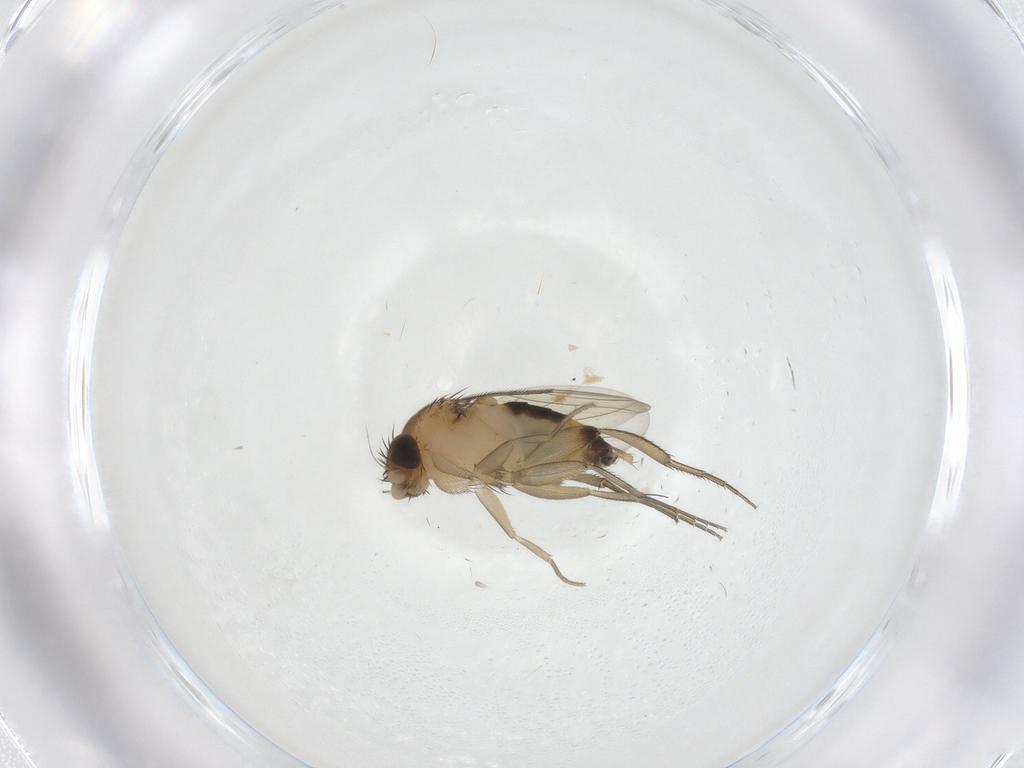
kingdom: Animalia
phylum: Arthropoda
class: Insecta
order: Diptera
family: Phoridae
